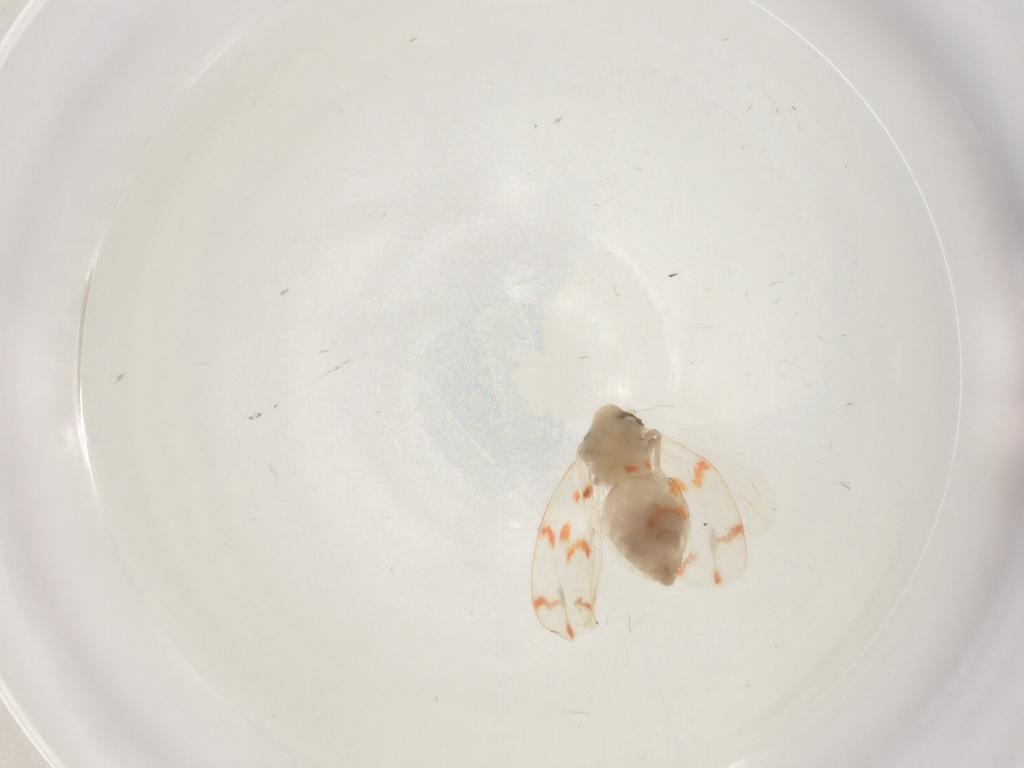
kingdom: Animalia
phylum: Arthropoda
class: Insecta
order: Hemiptera
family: Aleyrodidae
